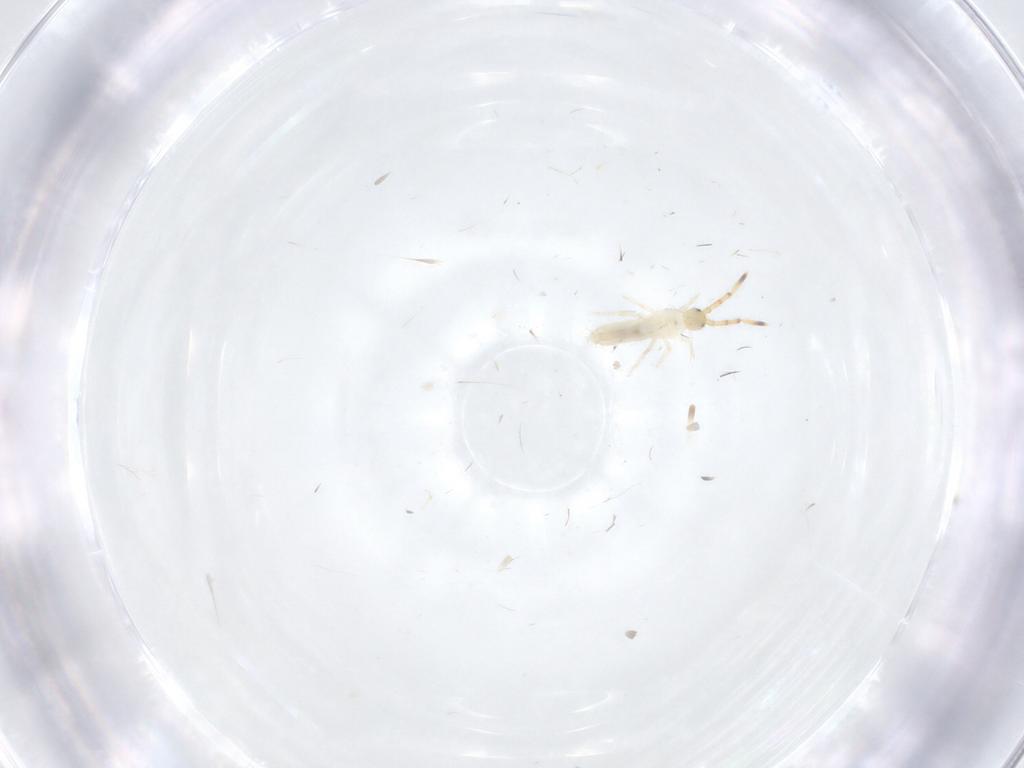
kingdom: Animalia
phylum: Arthropoda
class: Collembola
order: Entomobryomorpha
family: Entomobryidae
